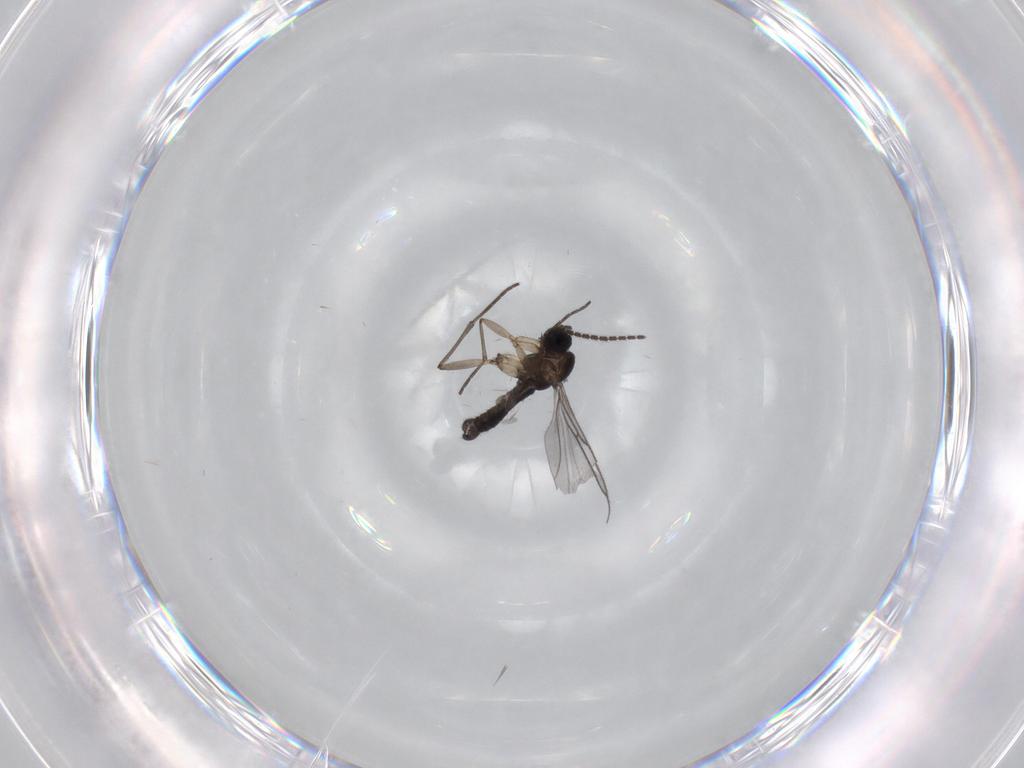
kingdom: Animalia
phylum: Arthropoda
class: Insecta
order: Diptera
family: Sciaridae
